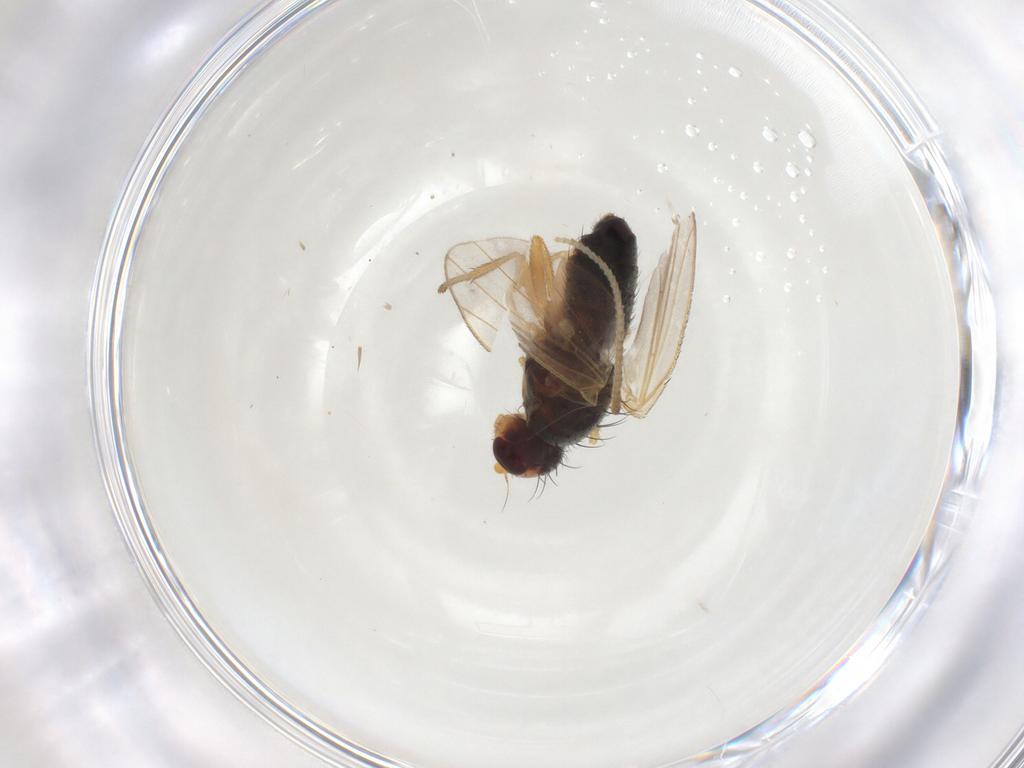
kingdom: Animalia
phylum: Arthropoda
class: Insecta
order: Diptera
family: Heleomyzidae
